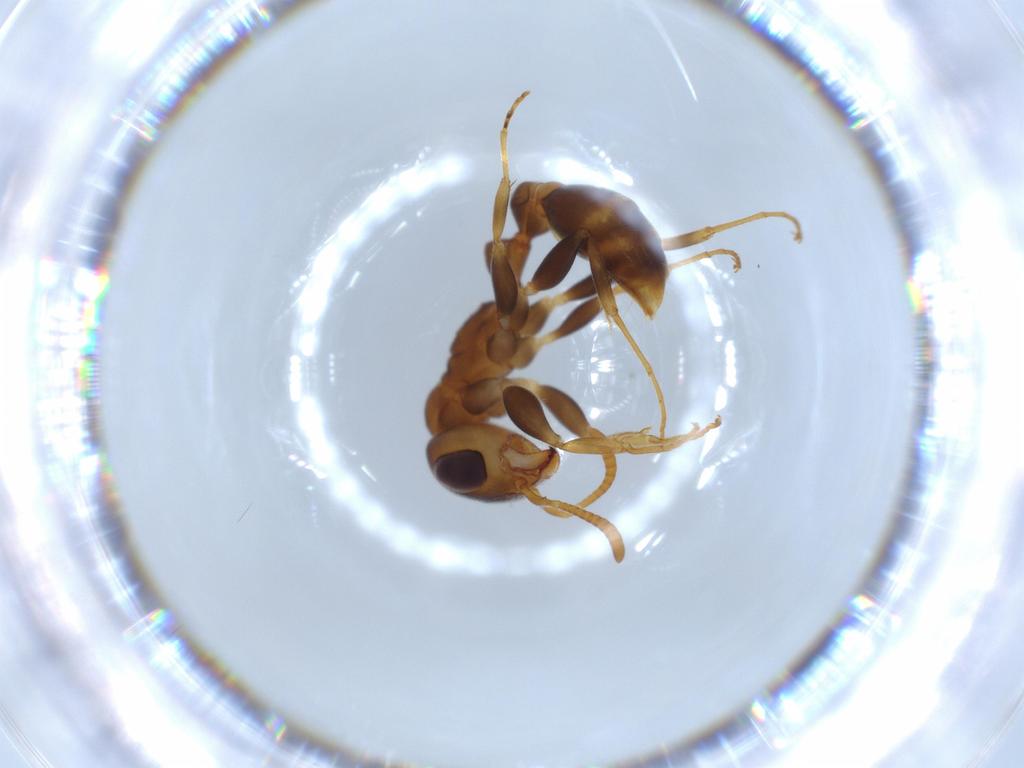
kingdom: Animalia
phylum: Arthropoda
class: Insecta
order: Hymenoptera
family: Formicidae
